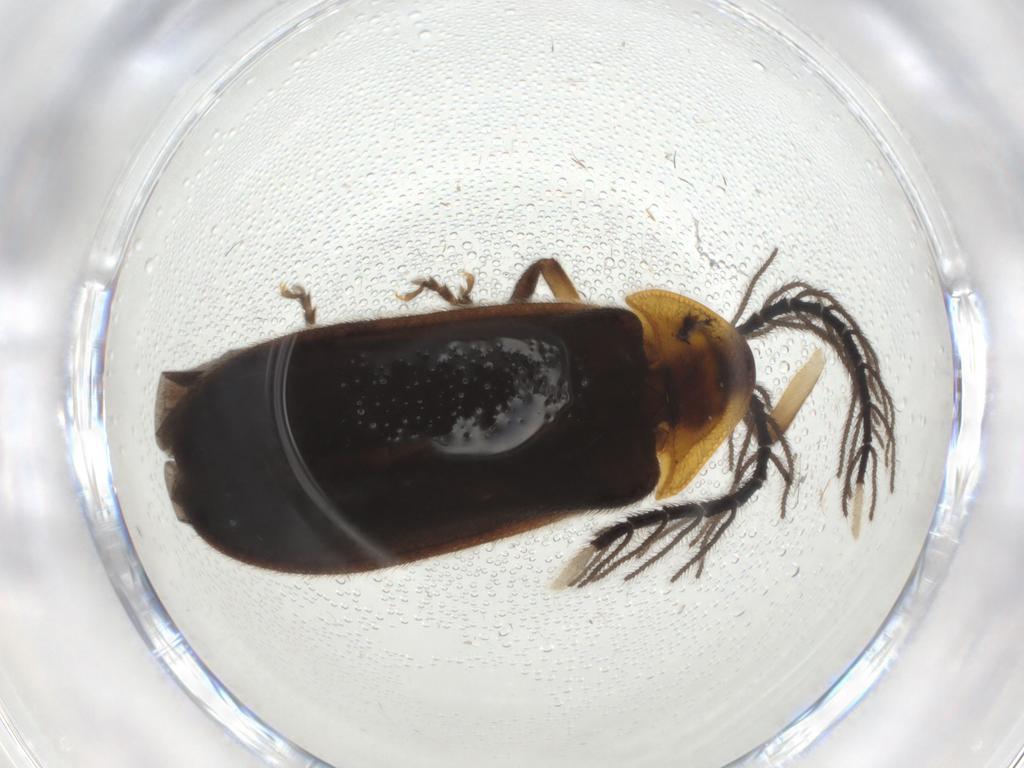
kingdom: Animalia
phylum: Arthropoda
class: Insecta
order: Coleoptera
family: Lampyridae
